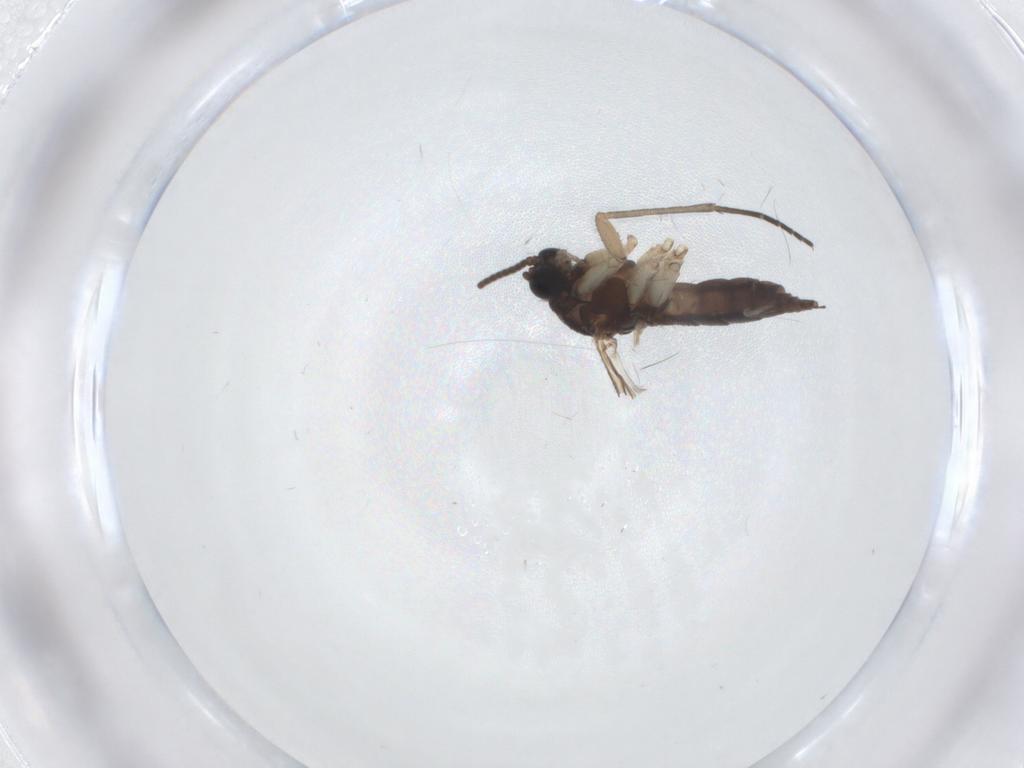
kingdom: Animalia
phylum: Arthropoda
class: Insecta
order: Diptera
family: Sciaridae
